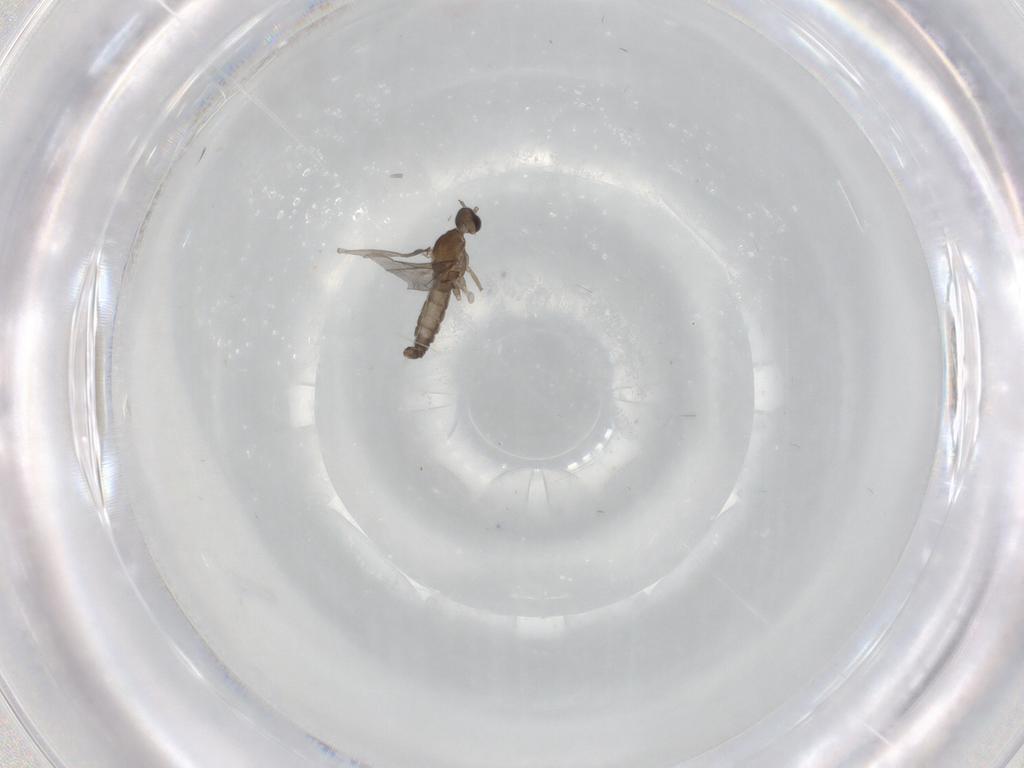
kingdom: Animalia
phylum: Arthropoda
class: Insecta
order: Diptera
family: Cecidomyiidae
